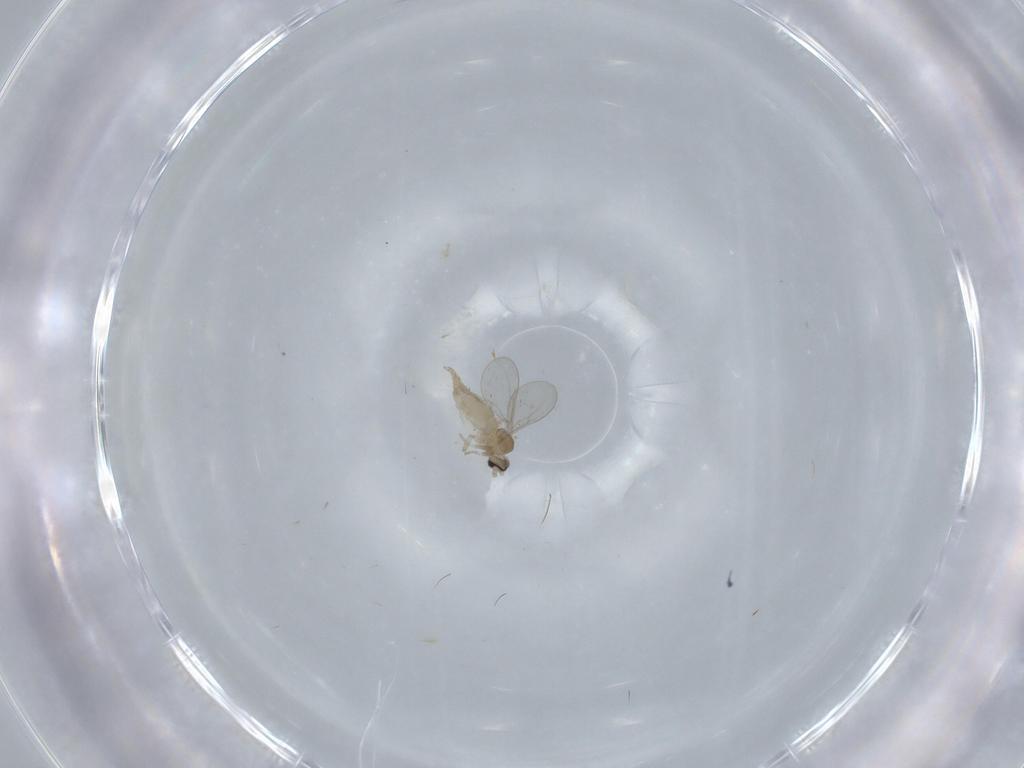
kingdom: Animalia
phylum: Arthropoda
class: Insecta
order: Diptera
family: Cecidomyiidae
